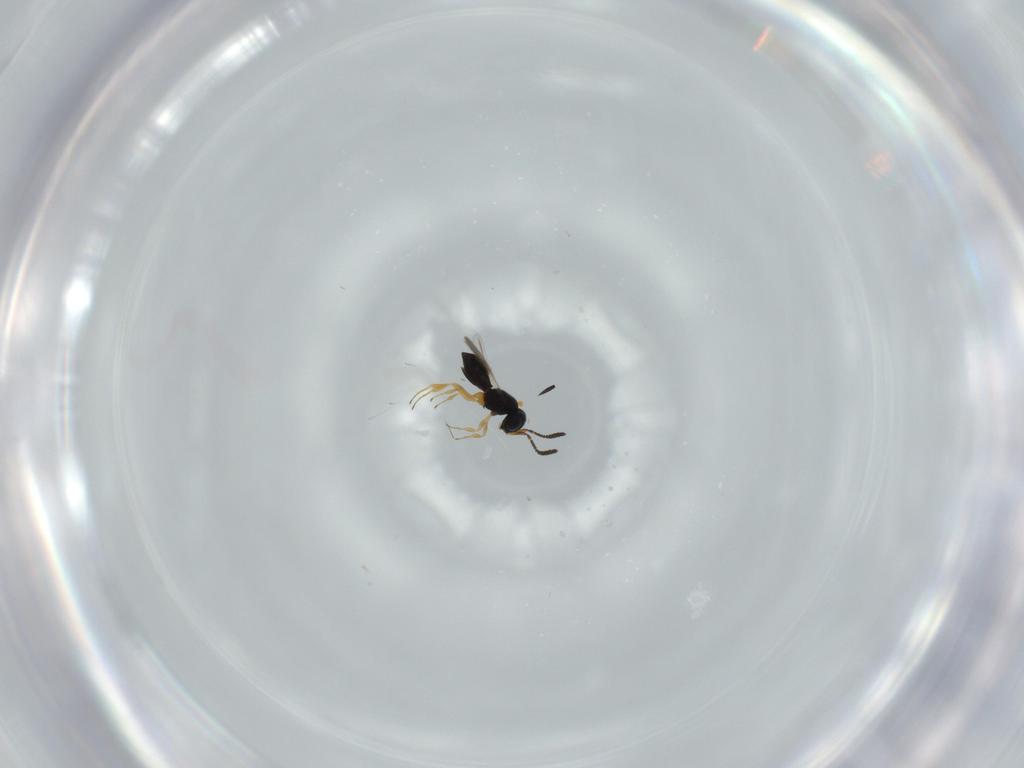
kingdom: Animalia
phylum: Arthropoda
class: Insecta
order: Hymenoptera
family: Scelionidae
